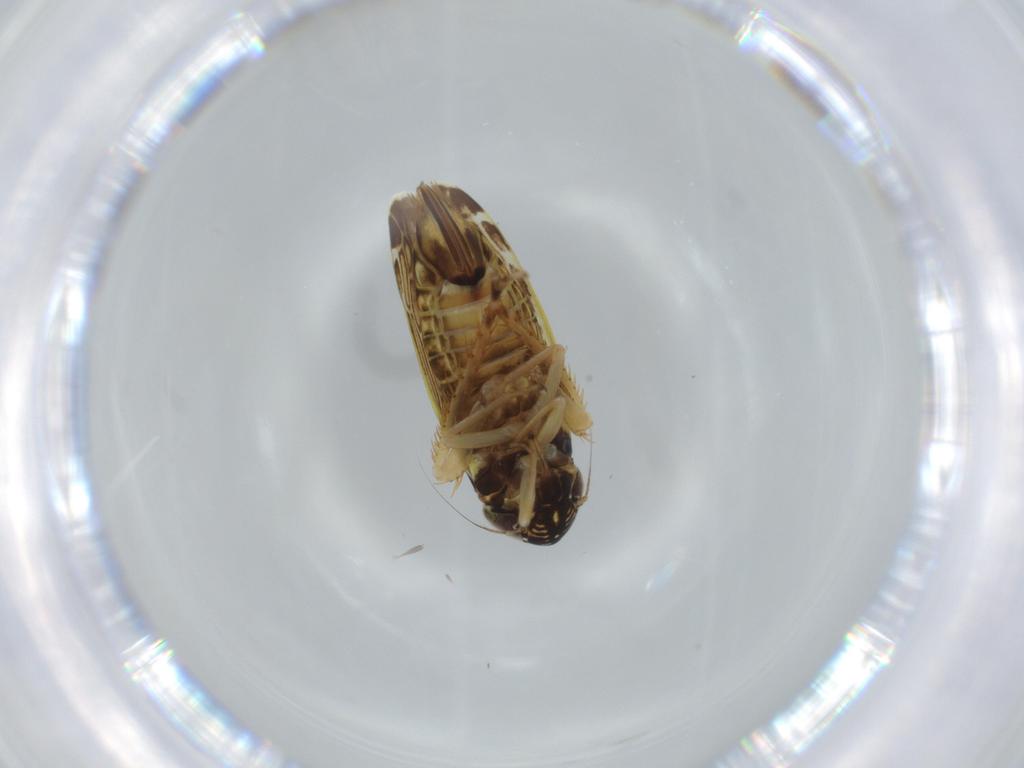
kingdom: Animalia
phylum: Arthropoda
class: Insecta
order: Hemiptera
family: Cicadellidae
